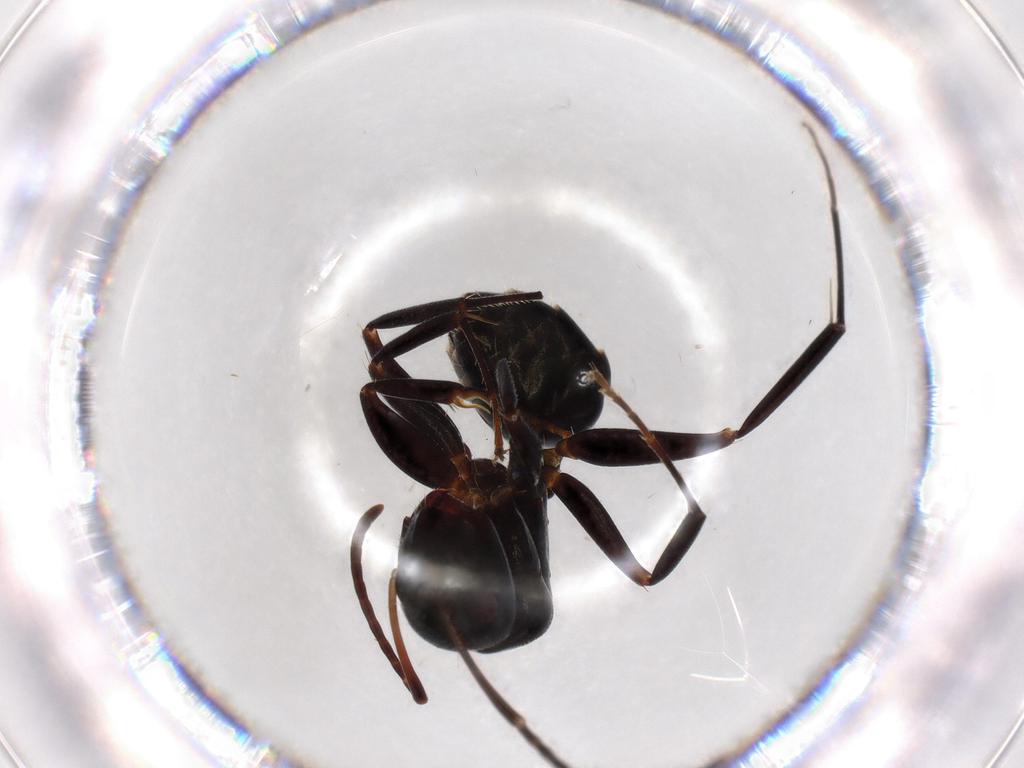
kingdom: Animalia
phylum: Arthropoda
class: Insecta
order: Hymenoptera
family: Formicidae
